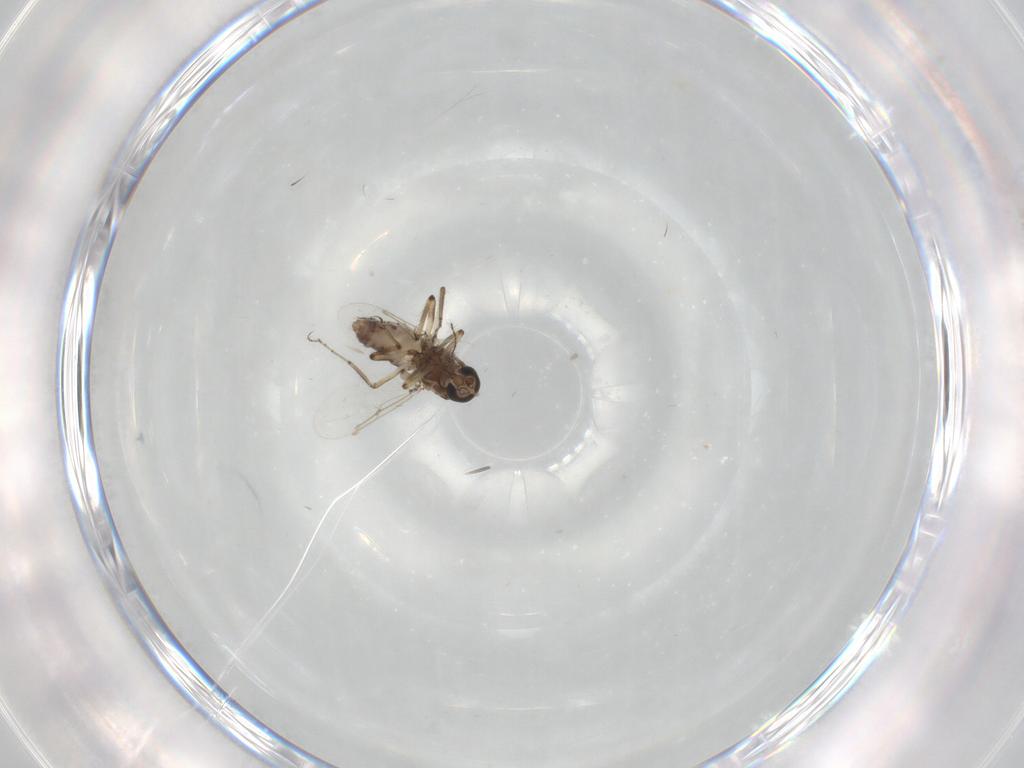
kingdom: Animalia
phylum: Arthropoda
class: Insecta
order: Diptera
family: Ceratopogonidae
